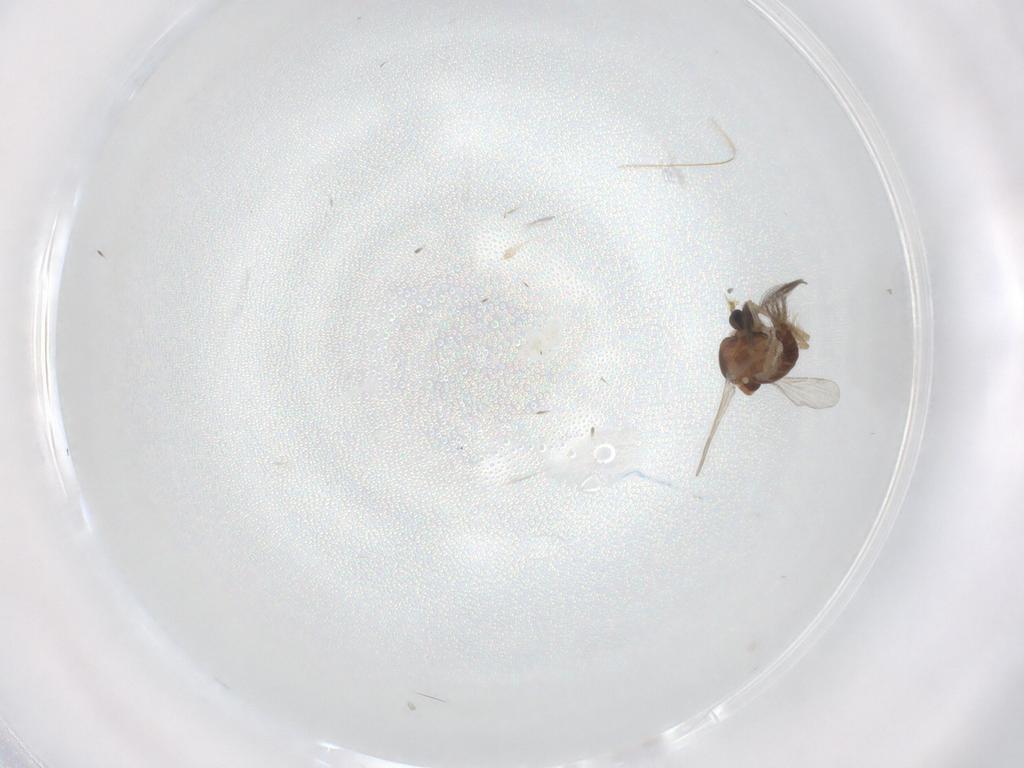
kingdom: Animalia
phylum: Arthropoda
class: Insecta
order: Diptera
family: Ceratopogonidae
